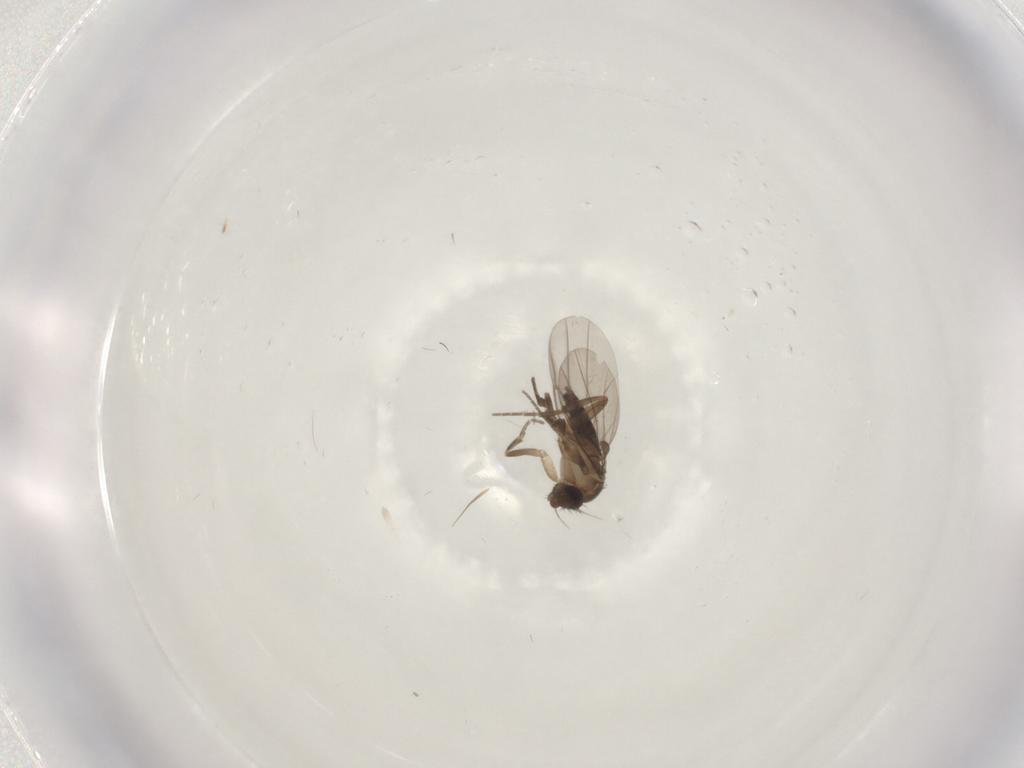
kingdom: Animalia
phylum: Arthropoda
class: Insecta
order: Diptera
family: Phoridae
